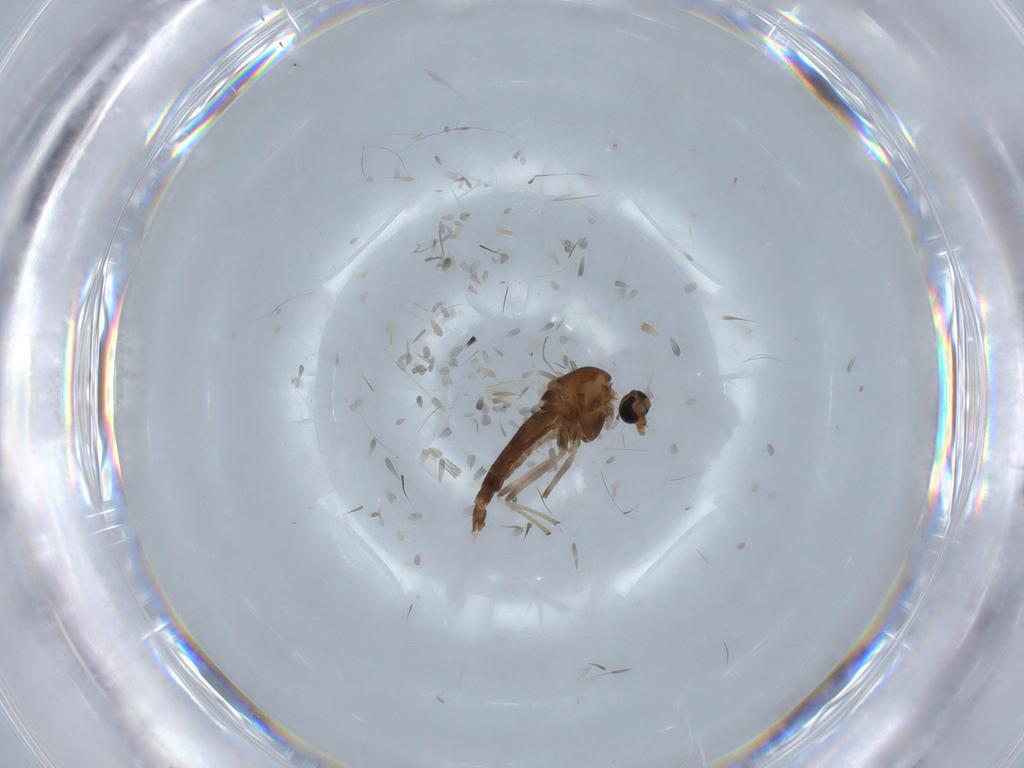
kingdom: Animalia
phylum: Arthropoda
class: Insecta
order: Diptera
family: Chironomidae
